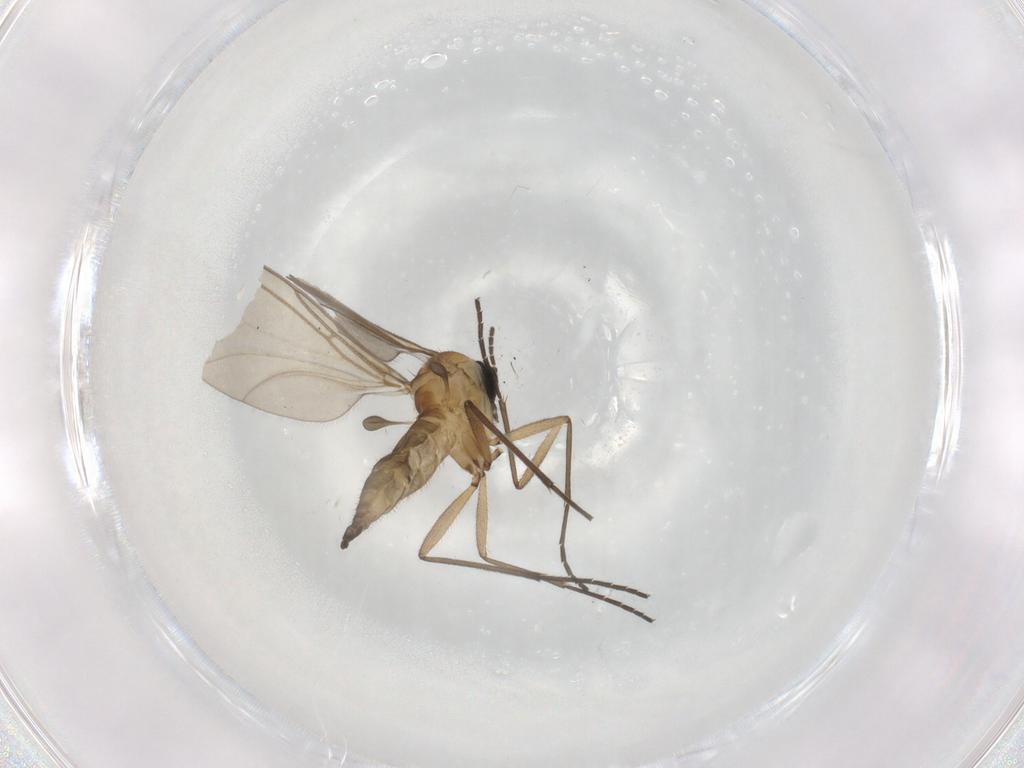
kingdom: Animalia
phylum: Arthropoda
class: Insecta
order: Diptera
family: Sciaridae
